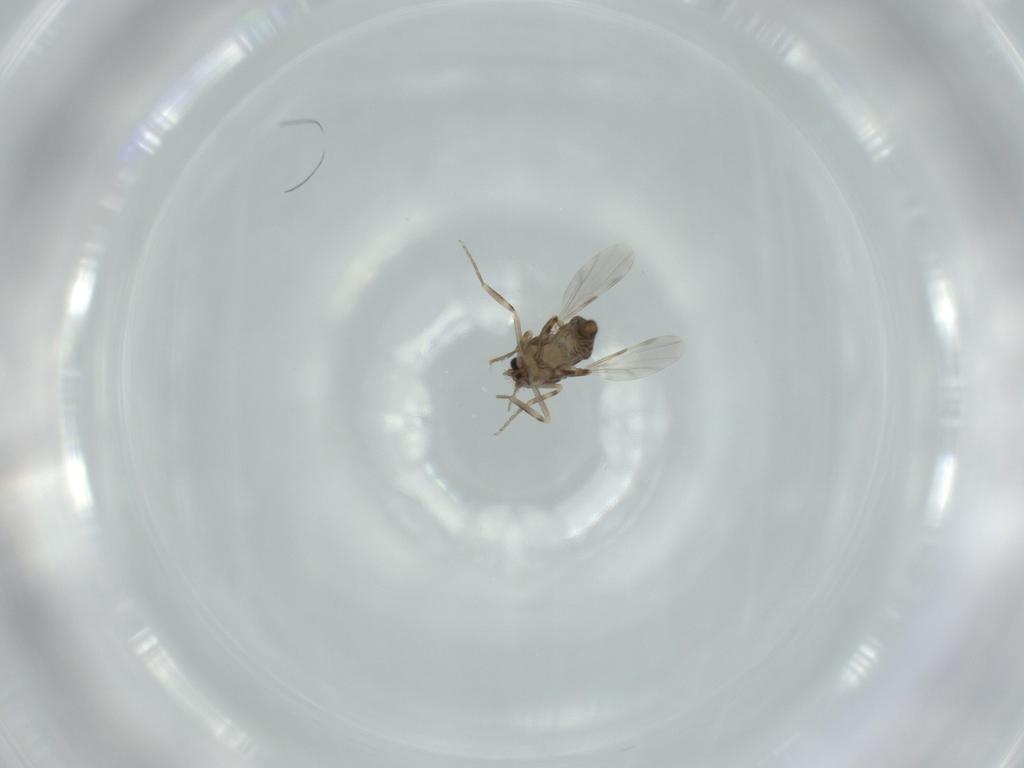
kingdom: Animalia
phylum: Arthropoda
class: Insecta
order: Diptera
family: Ceratopogonidae
